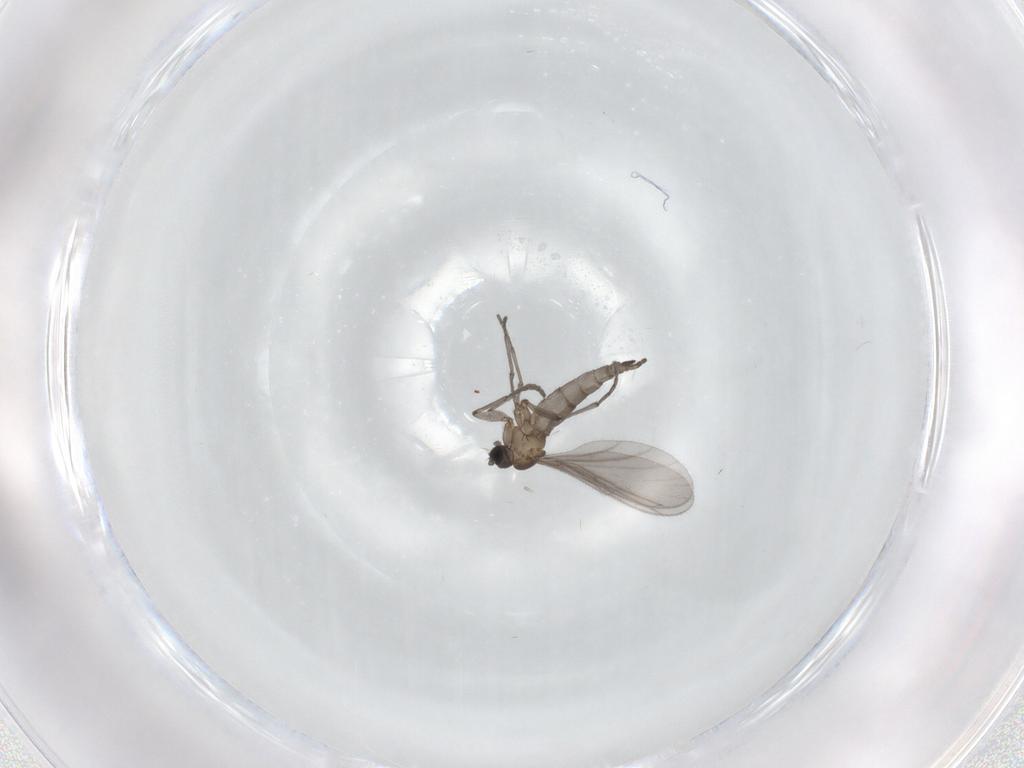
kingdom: Animalia
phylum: Arthropoda
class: Insecta
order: Diptera
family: Sciaridae
